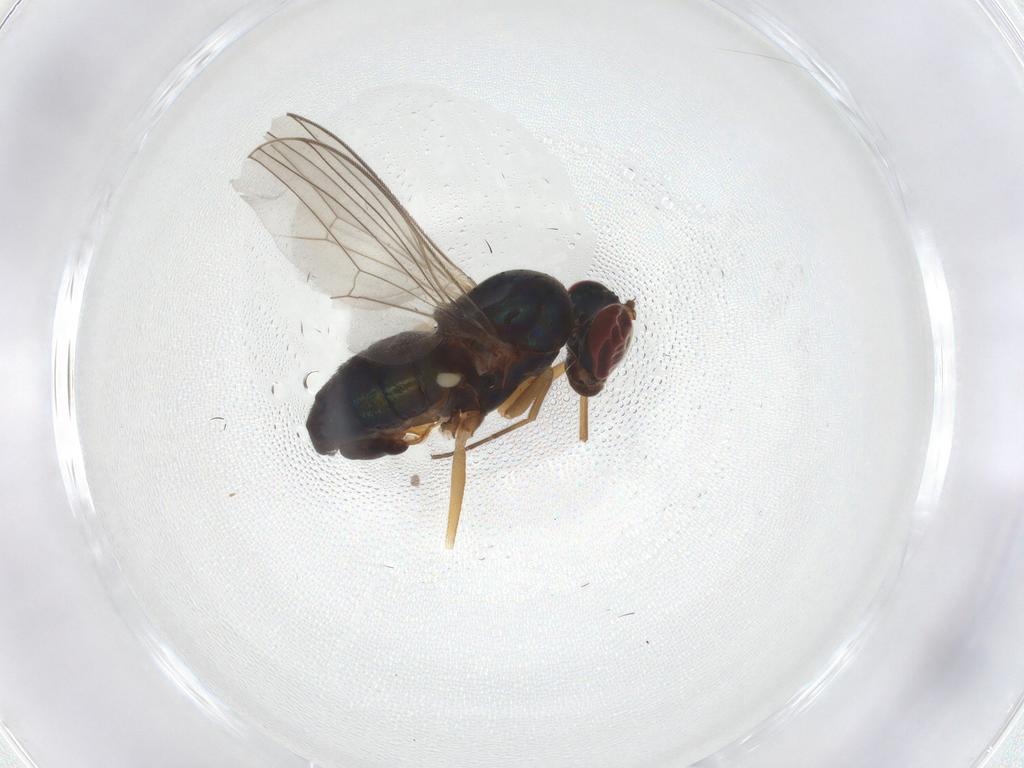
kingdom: Animalia
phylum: Arthropoda
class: Insecta
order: Diptera
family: Dolichopodidae
